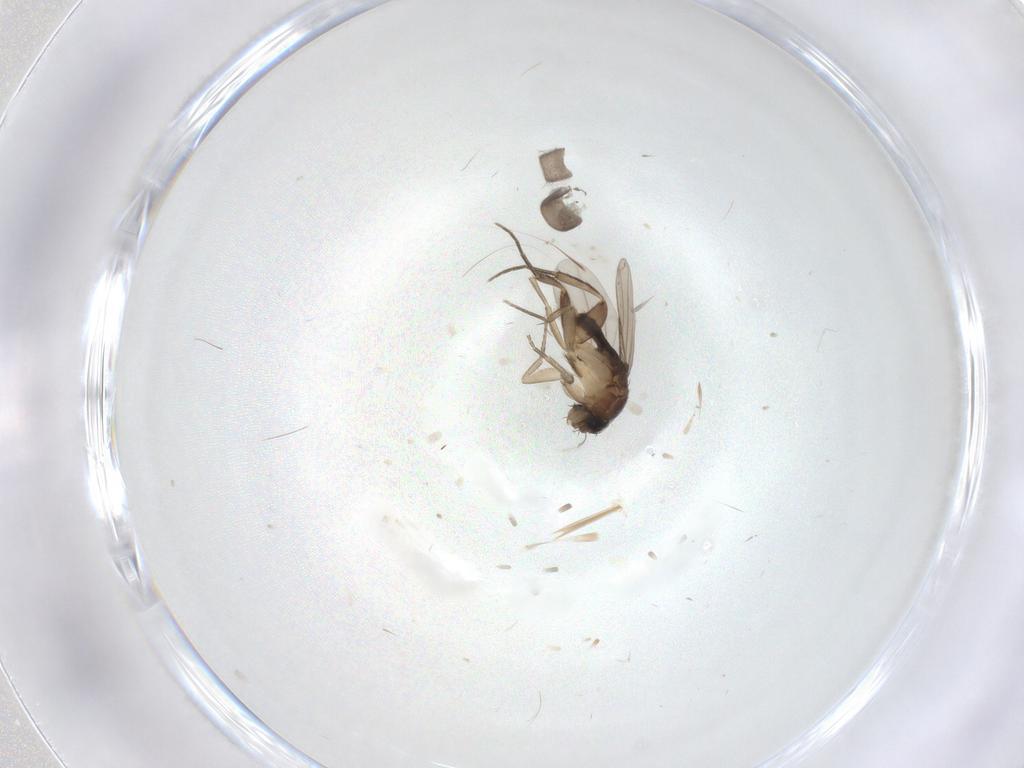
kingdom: Animalia
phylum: Arthropoda
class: Insecta
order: Diptera
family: Phoridae
